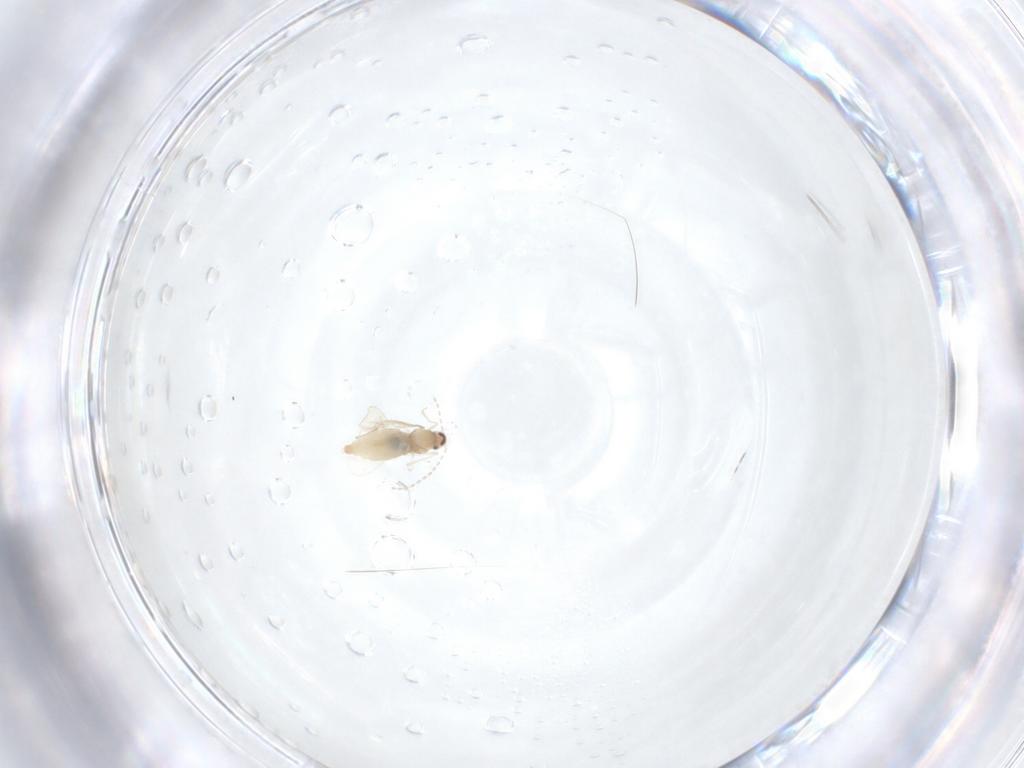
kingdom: Animalia
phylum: Arthropoda
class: Insecta
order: Diptera
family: Cecidomyiidae
